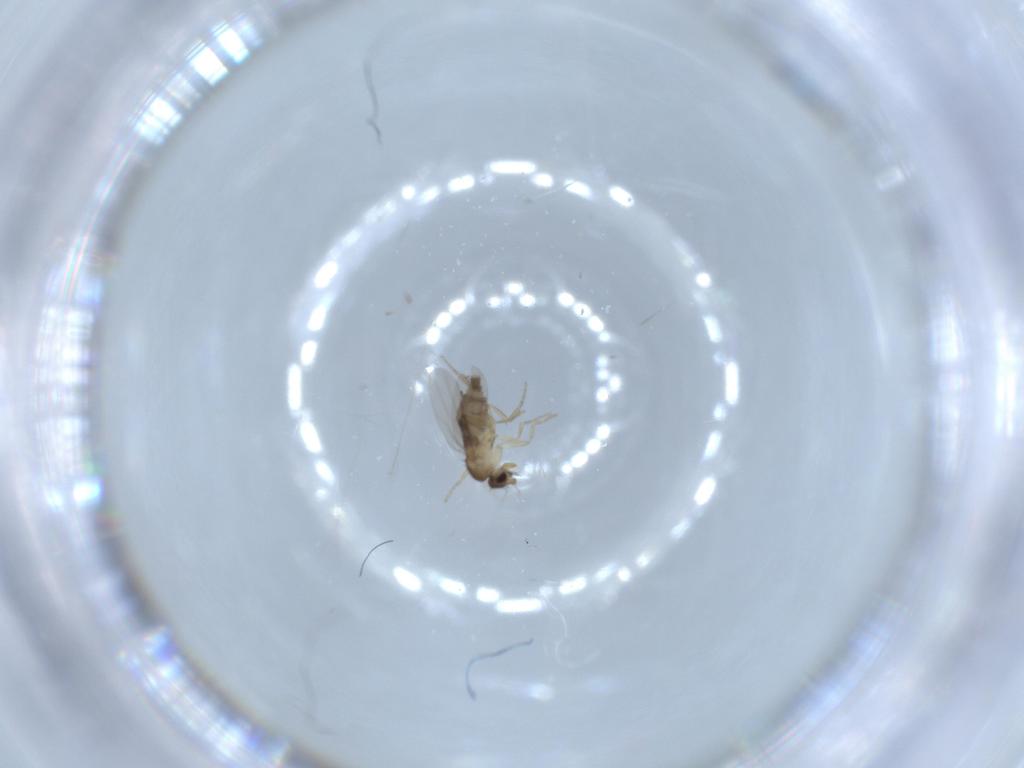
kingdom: Animalia
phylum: Arthropoda
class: Insecta
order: Diptera
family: Phoridae
